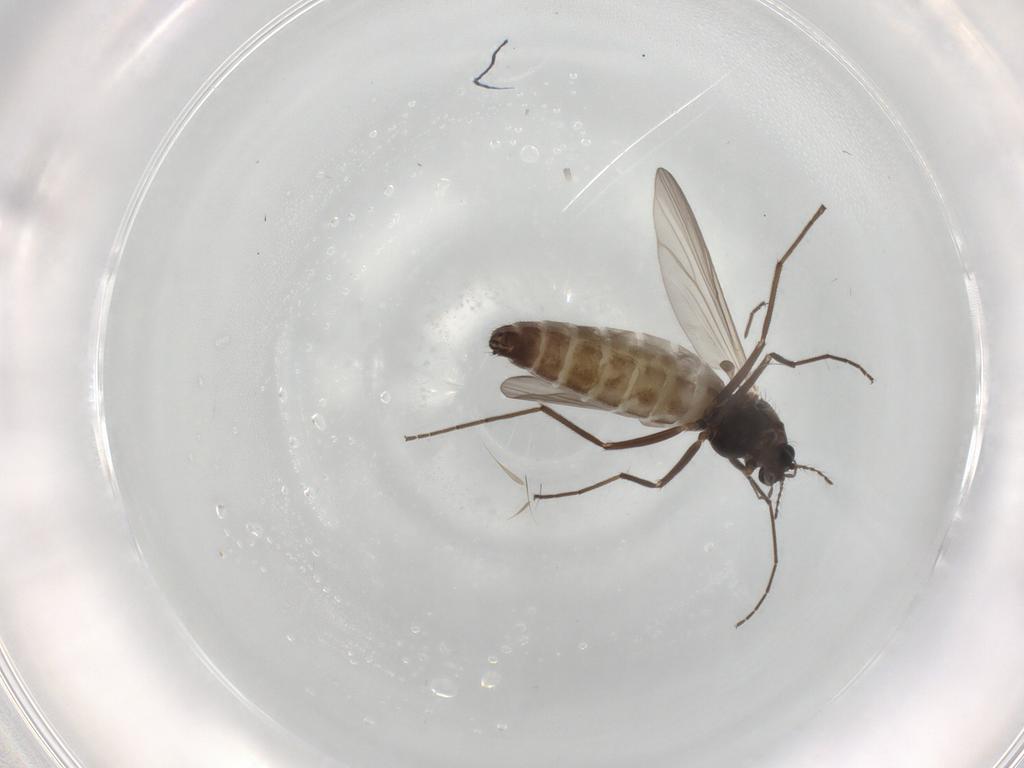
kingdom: Animalia
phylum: Arthropoda
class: Insecta
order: Diptera
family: Chironomidae
